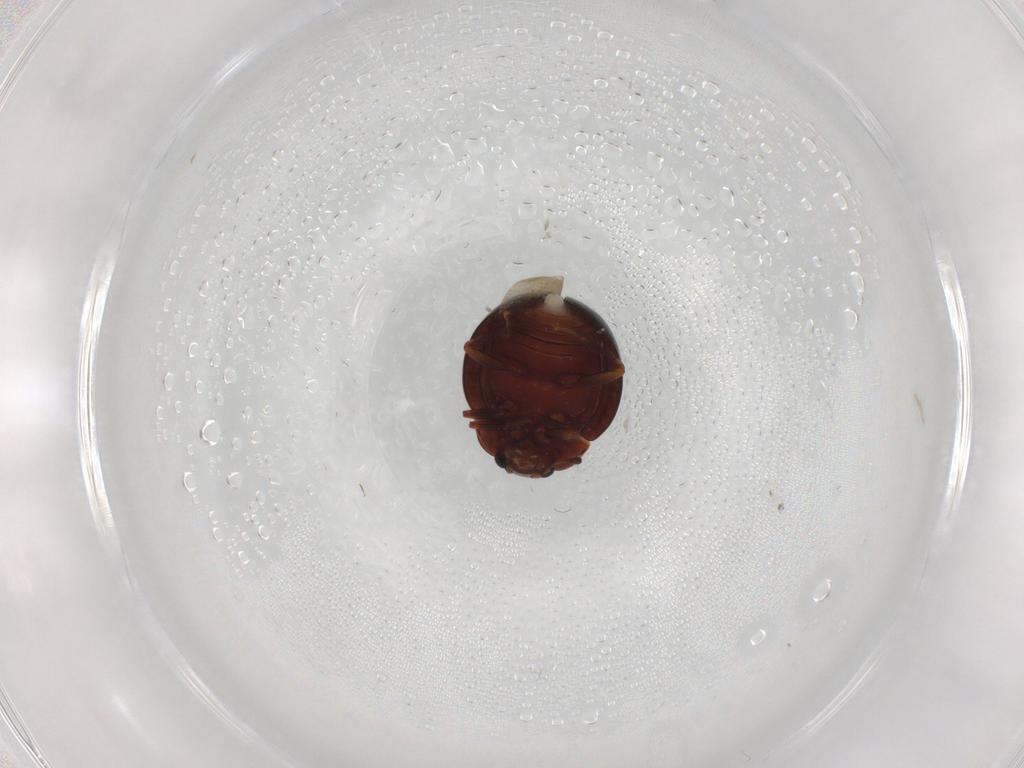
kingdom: Animalia
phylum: Arthropoda
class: Insecta
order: Coleoptera
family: Anamorphidae
